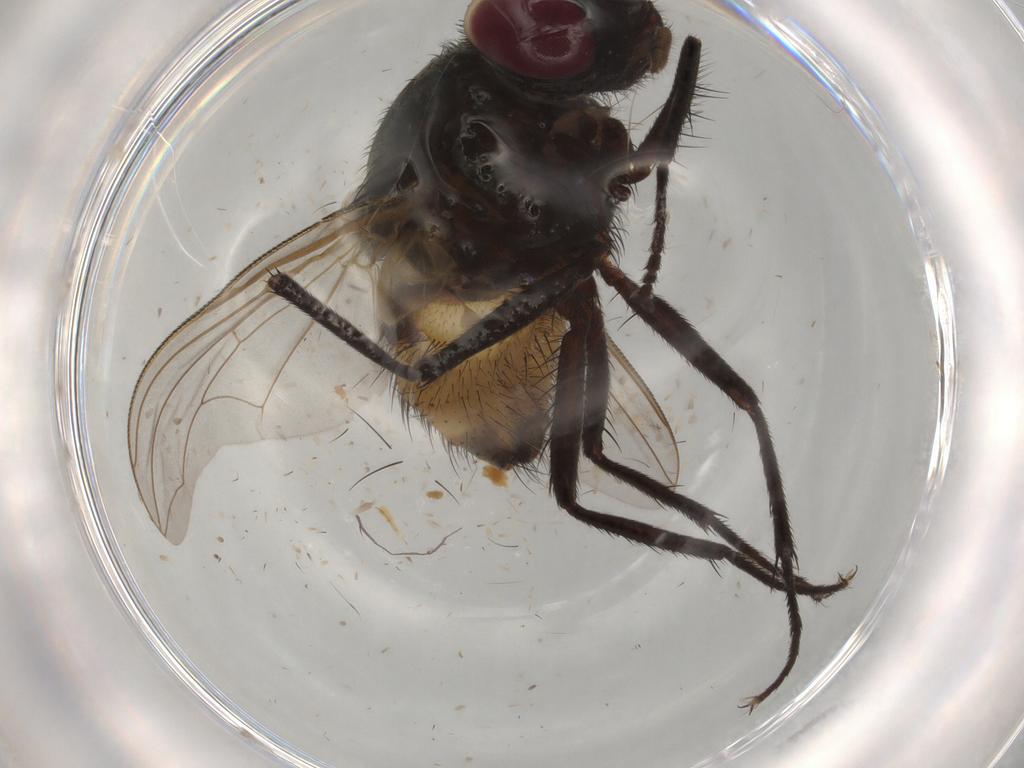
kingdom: Animalia
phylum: Arthropoda
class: Insecta
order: Diptera
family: Muscidae
